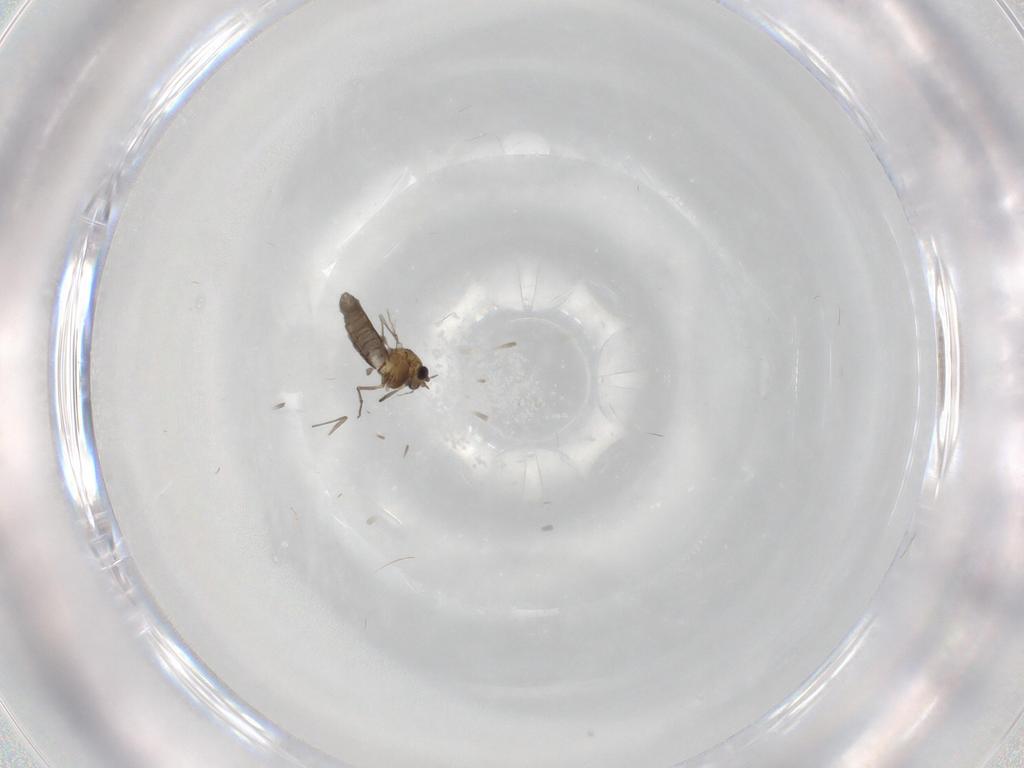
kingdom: Animalia
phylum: Arthropoda
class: Insecta
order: Diptera
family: Chironomidae
